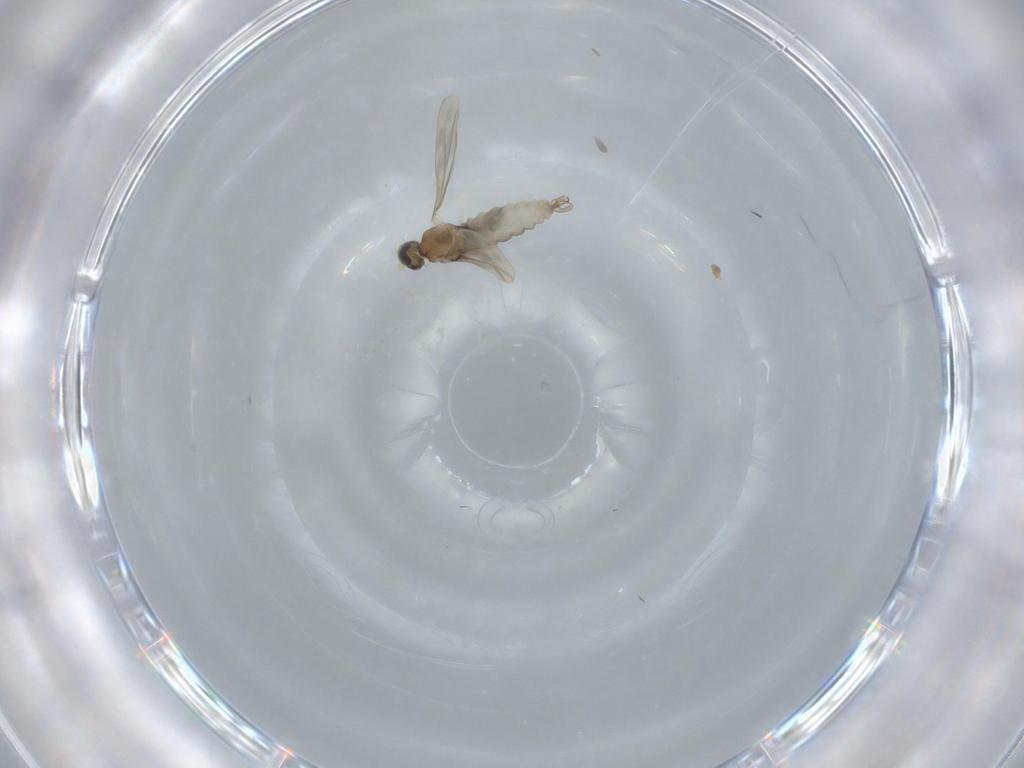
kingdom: Animalia
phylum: Arthropoda
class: Insecta
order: Diptera
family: Cecidomyiidae
